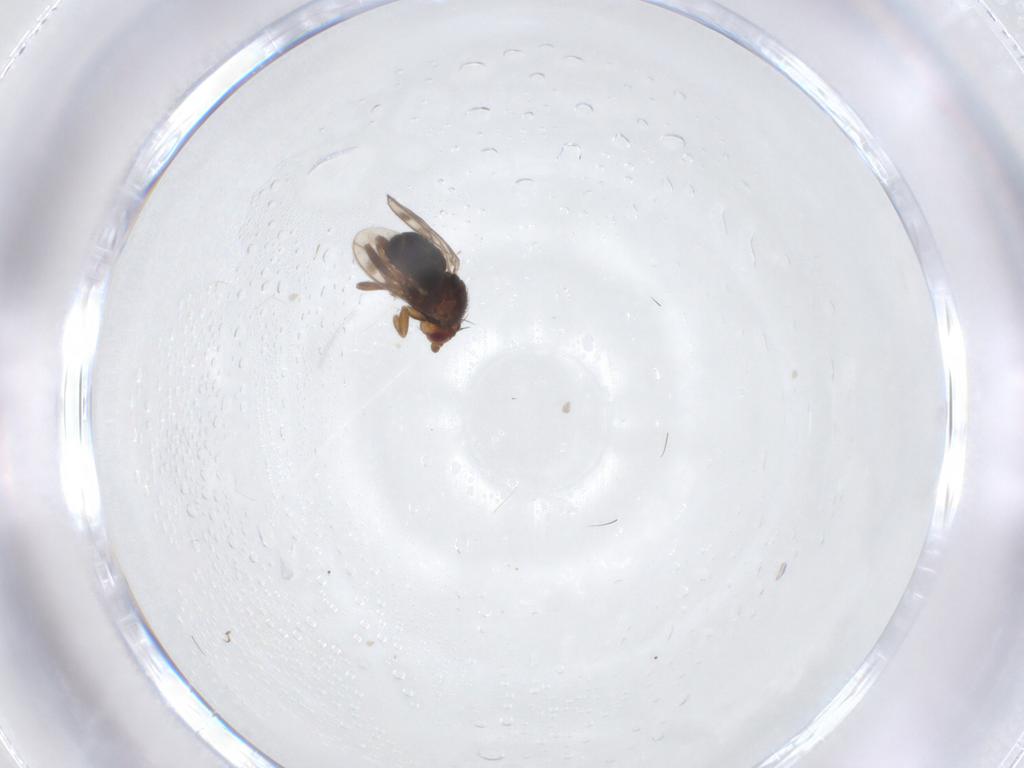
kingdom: Animalia
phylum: Arthropoda
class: Insecta
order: Diptera
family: Sphaeroceridae
